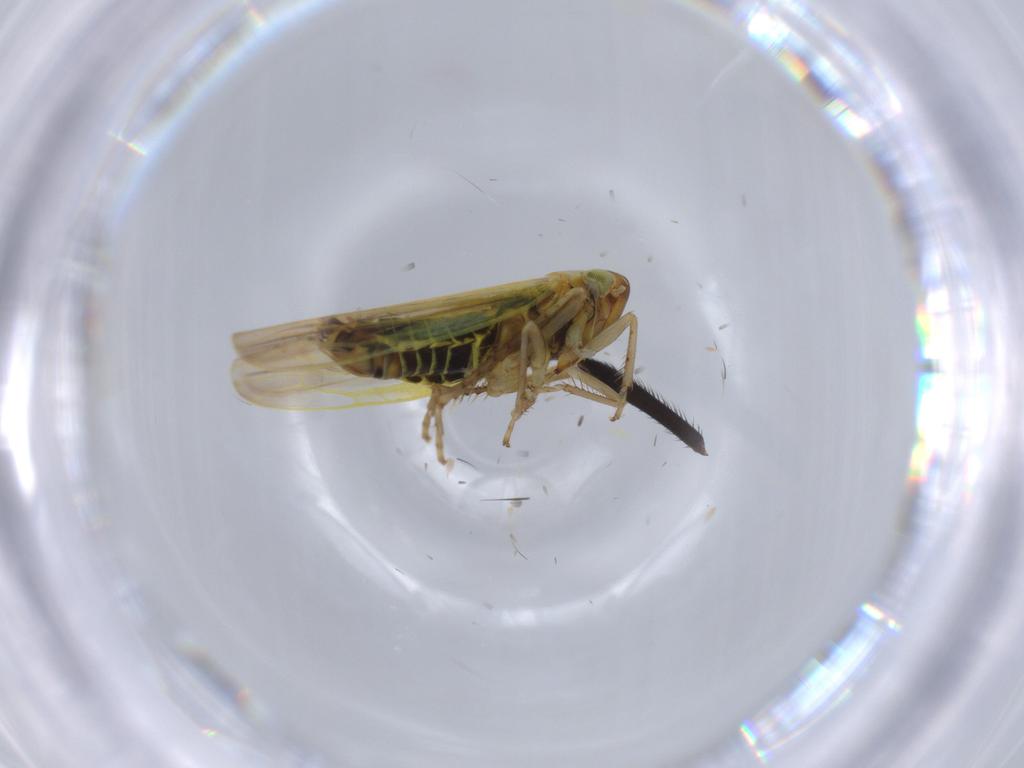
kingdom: Animalia
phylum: Arthropoda
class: Insecta
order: Hemiptera
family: Cicadellidae
